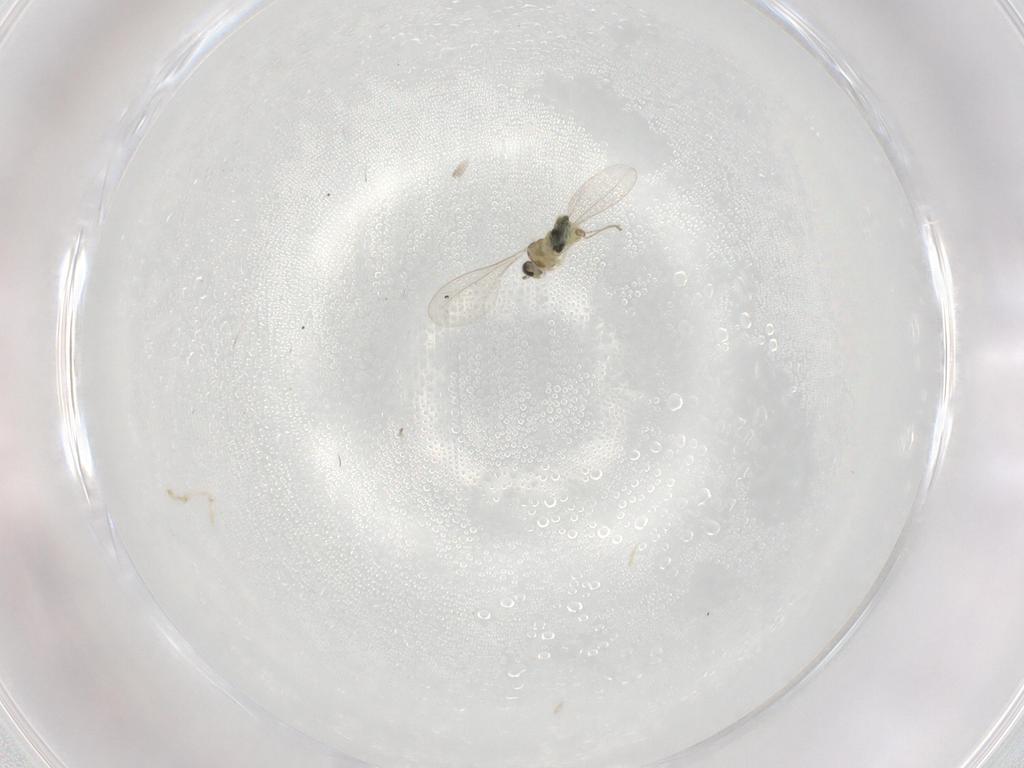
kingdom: Animalia
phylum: Arthropoda
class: Insecta
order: Diptera
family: Cecidomyiidae
